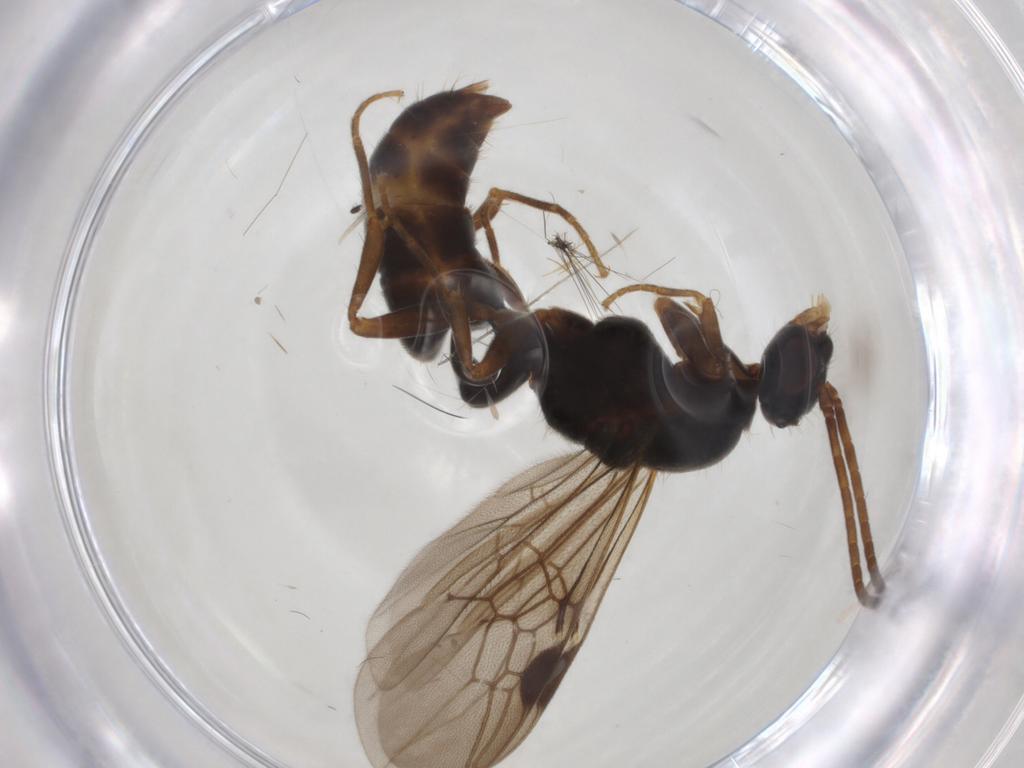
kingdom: Animalia
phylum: Arthropoda
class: Insecta
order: Hymenoptera
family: Formicidae
